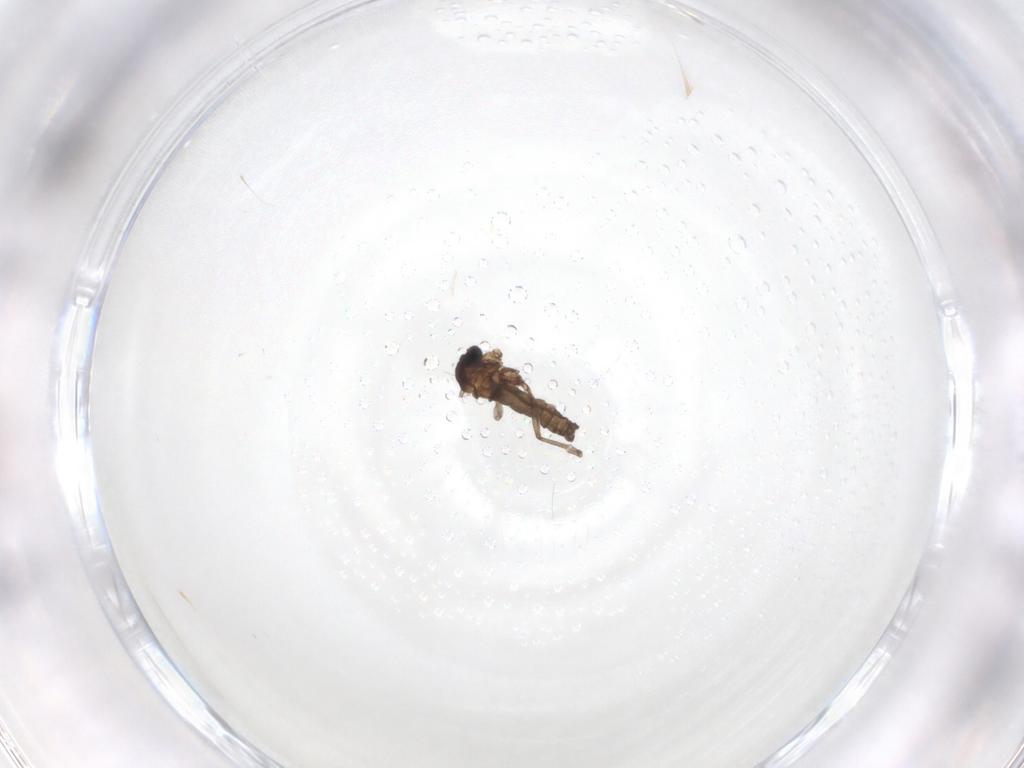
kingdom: Animalia
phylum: Arthropoda
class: Insecta
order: Diptera
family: Sciaridae
